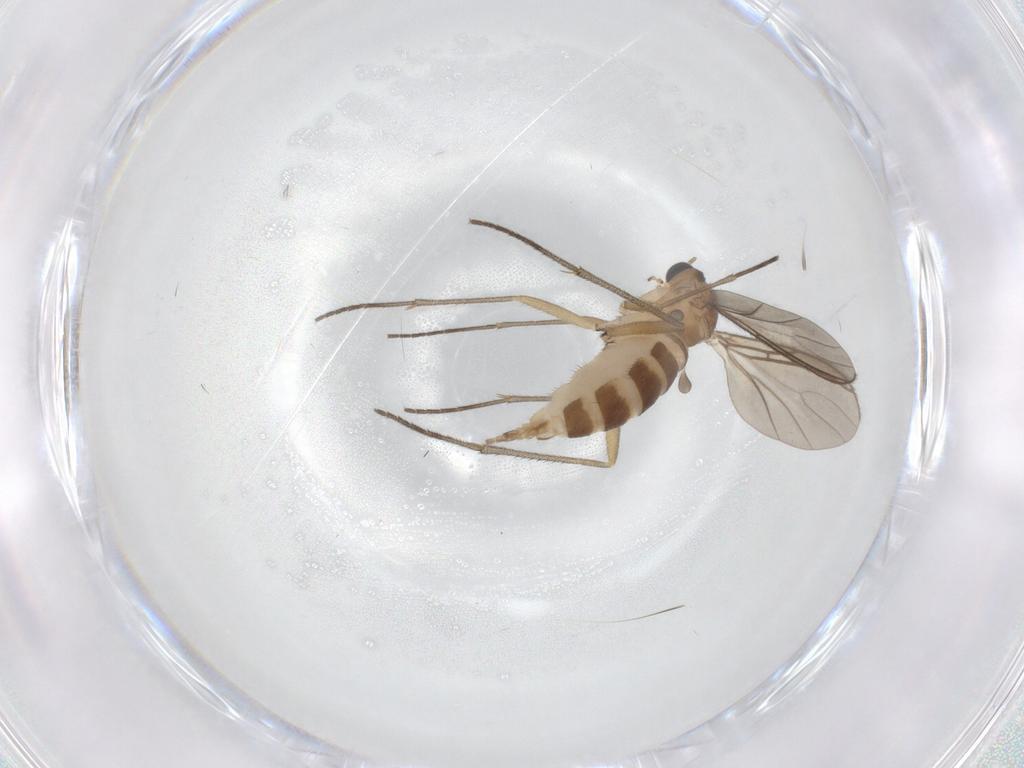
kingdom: Animalia
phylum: Arthropoda
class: Insecta
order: Diptera
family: Sciaridae
